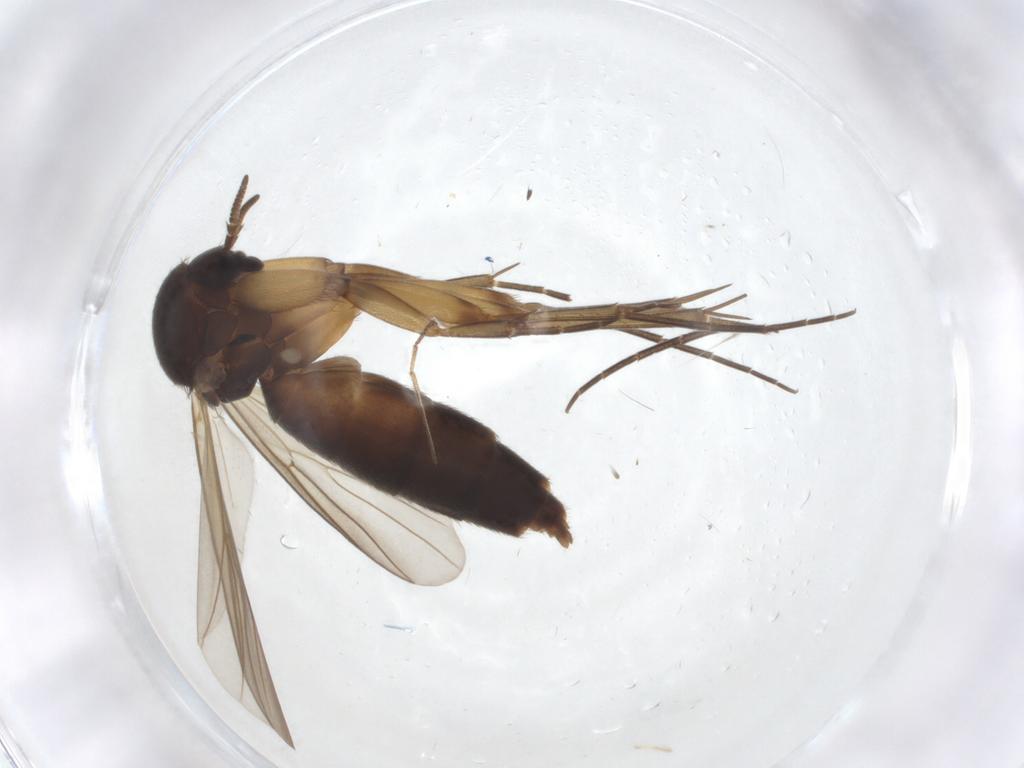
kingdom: Animalia
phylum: Arthropoda
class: Insecta
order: Diptera
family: Mycetophilidae
